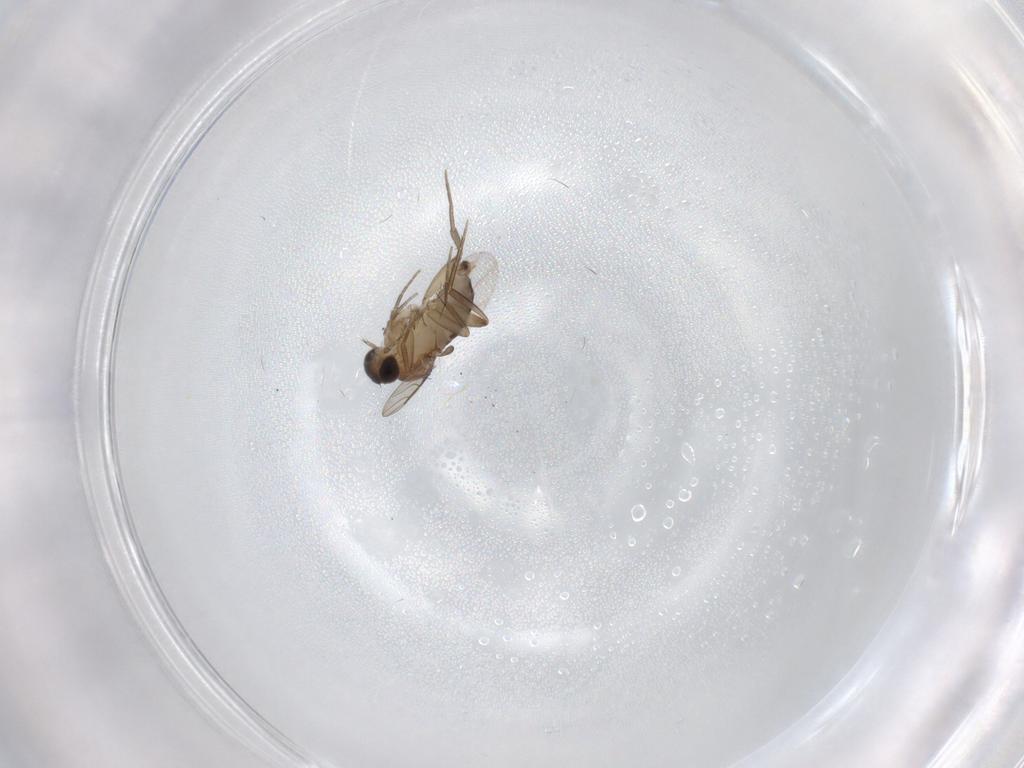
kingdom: Animalia
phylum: Arthropoda
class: Insecta
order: Diptera
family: Phoridae
